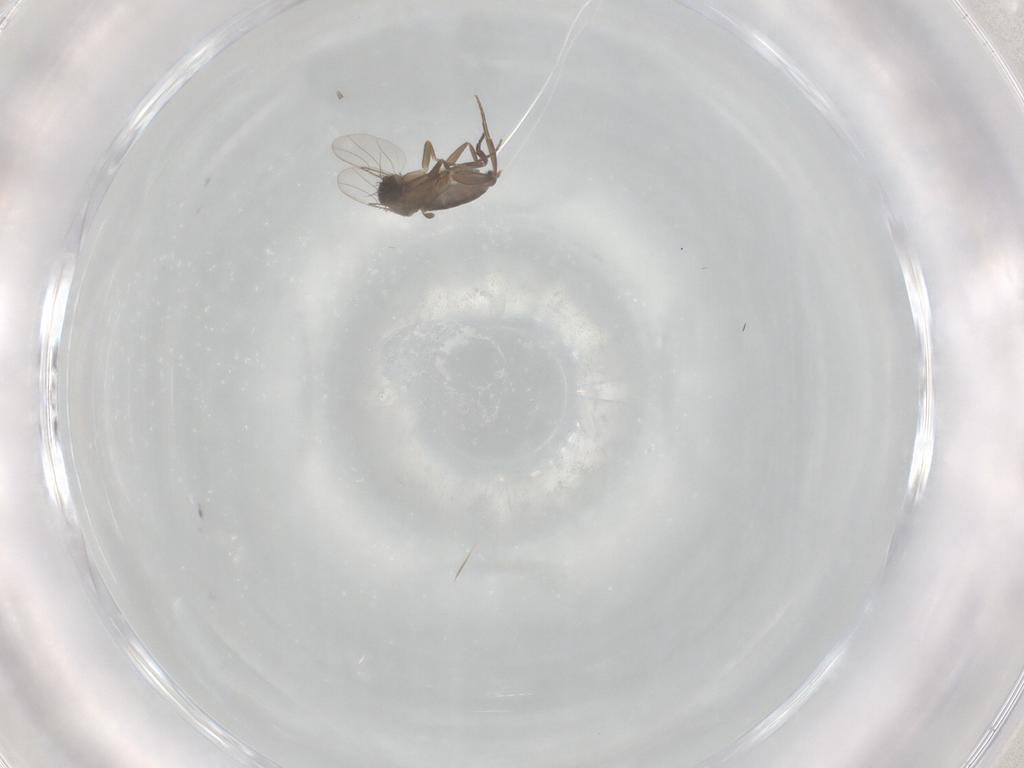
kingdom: Animalia
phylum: Arthropoda
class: Insecta
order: Diptera
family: Phoridae
